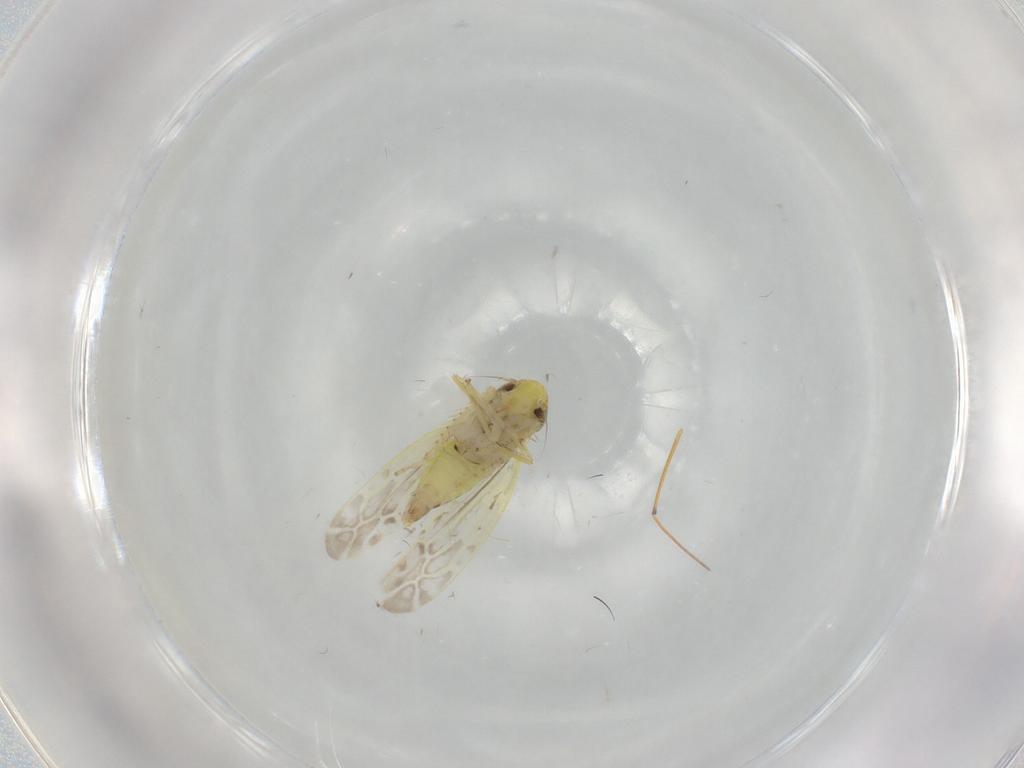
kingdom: Animalia
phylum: Arthropoda
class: Insecta
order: Hemiptera
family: Cicadellidae
